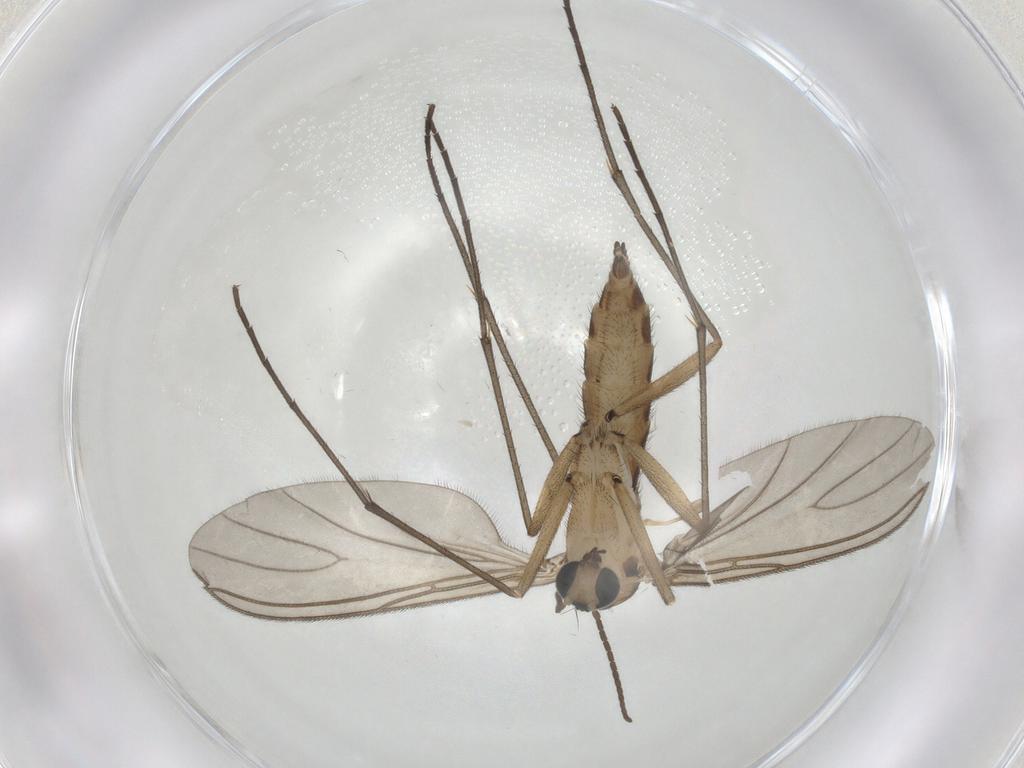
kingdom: Animalia
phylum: Arthropoda
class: Insecta
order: Diptera
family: Sciaridae
